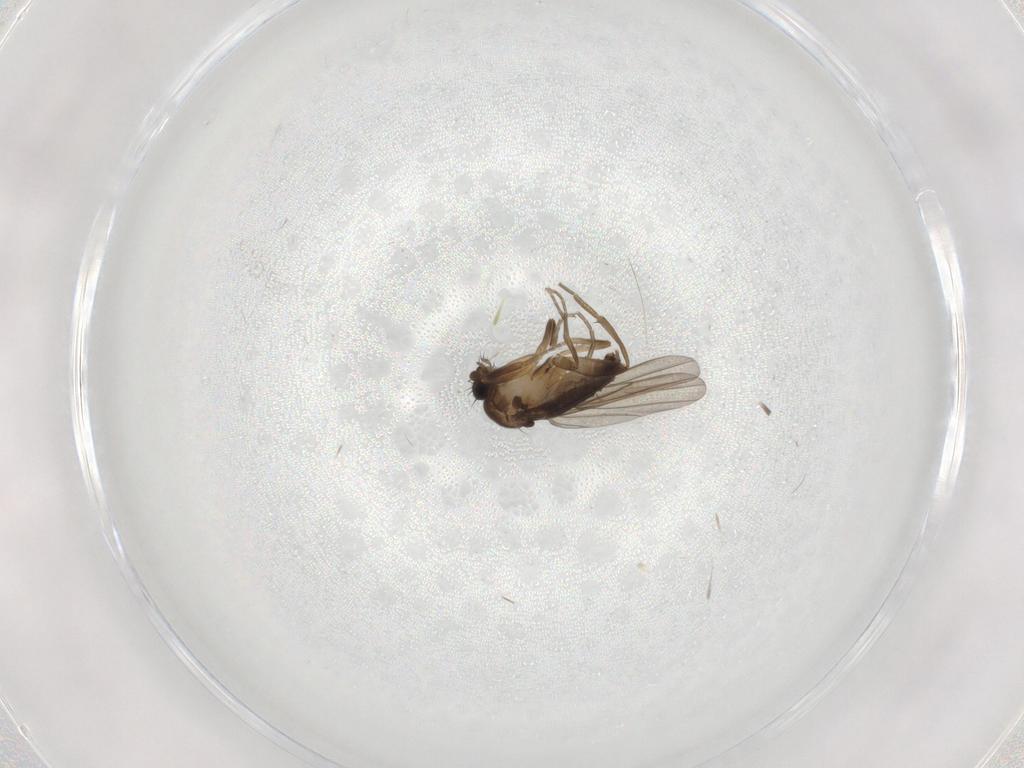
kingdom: Animalia
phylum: Arthropoda
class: Insecta
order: Diptera
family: Phoridae
